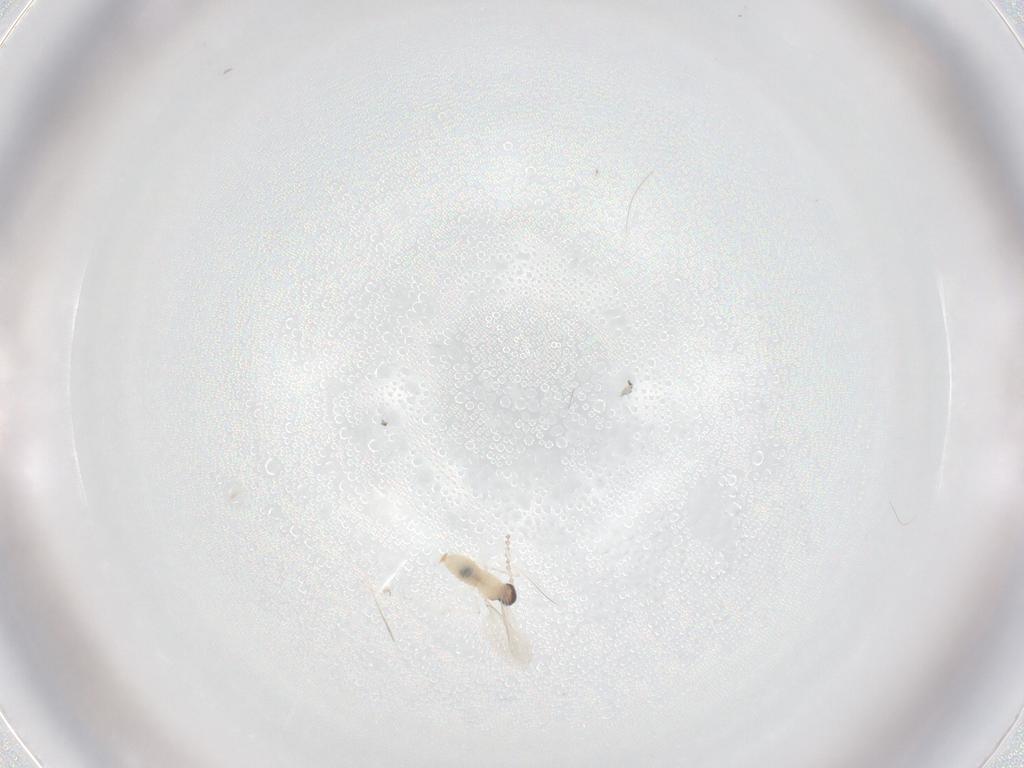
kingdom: Animalia
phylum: Arthropoda
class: Insecta
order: Diptera
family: Cecidomyiidae
